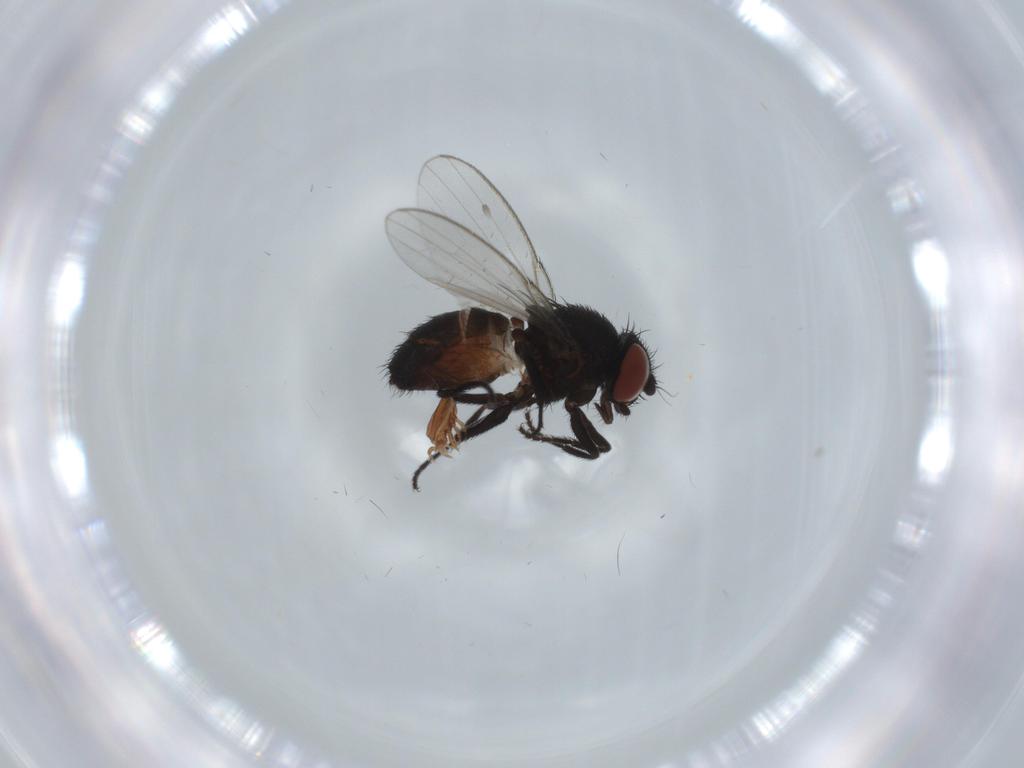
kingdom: Animalia
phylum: Arthropoda
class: Insecta
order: Diptera
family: Milichiidae
